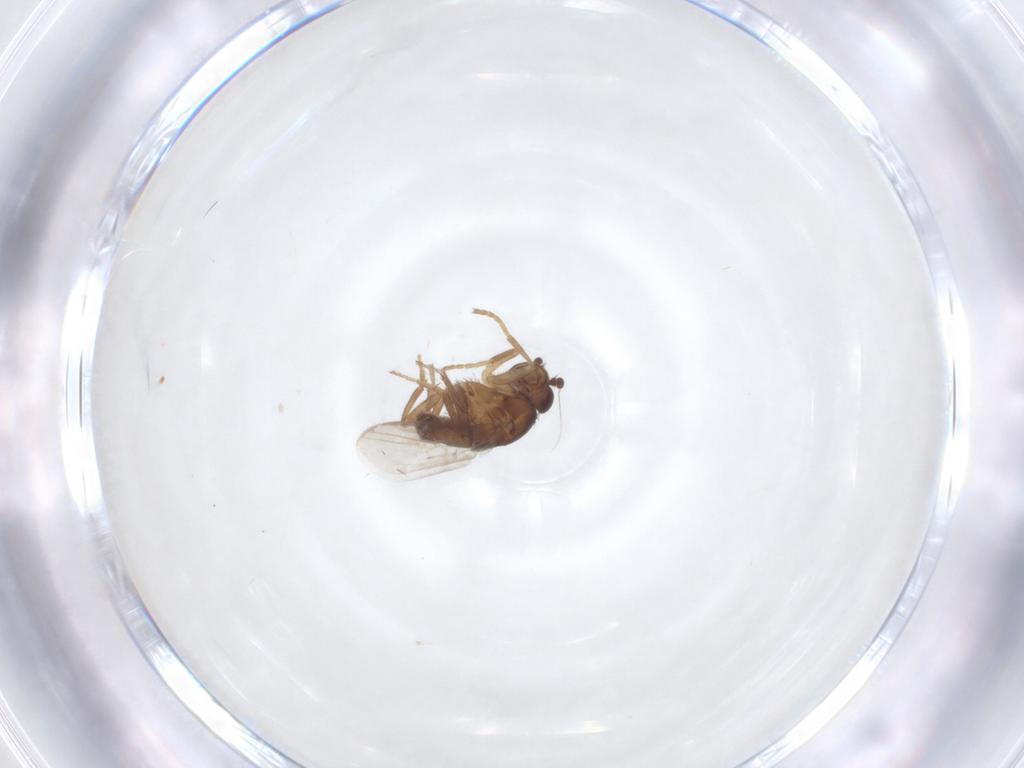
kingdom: Animalia
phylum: Arthropoda
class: Insecta
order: Diptera
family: Sphaeroceridae
